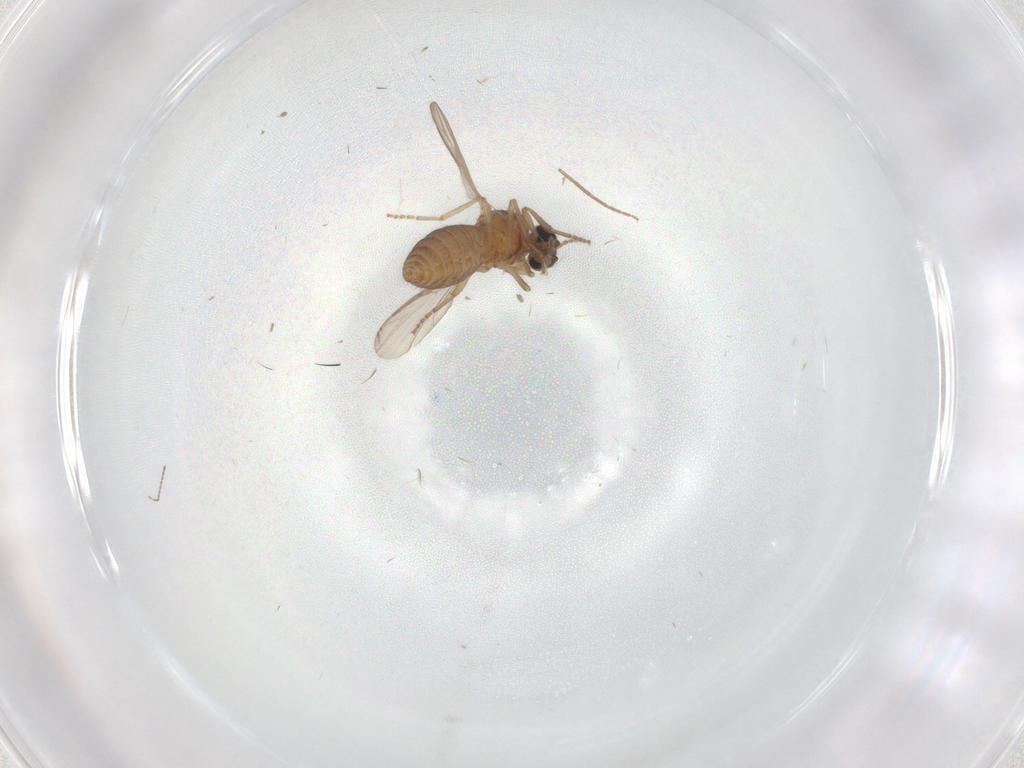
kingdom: Animalia
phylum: Arthropoda
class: Insecta
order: Diptera
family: Ceratopogonidae
